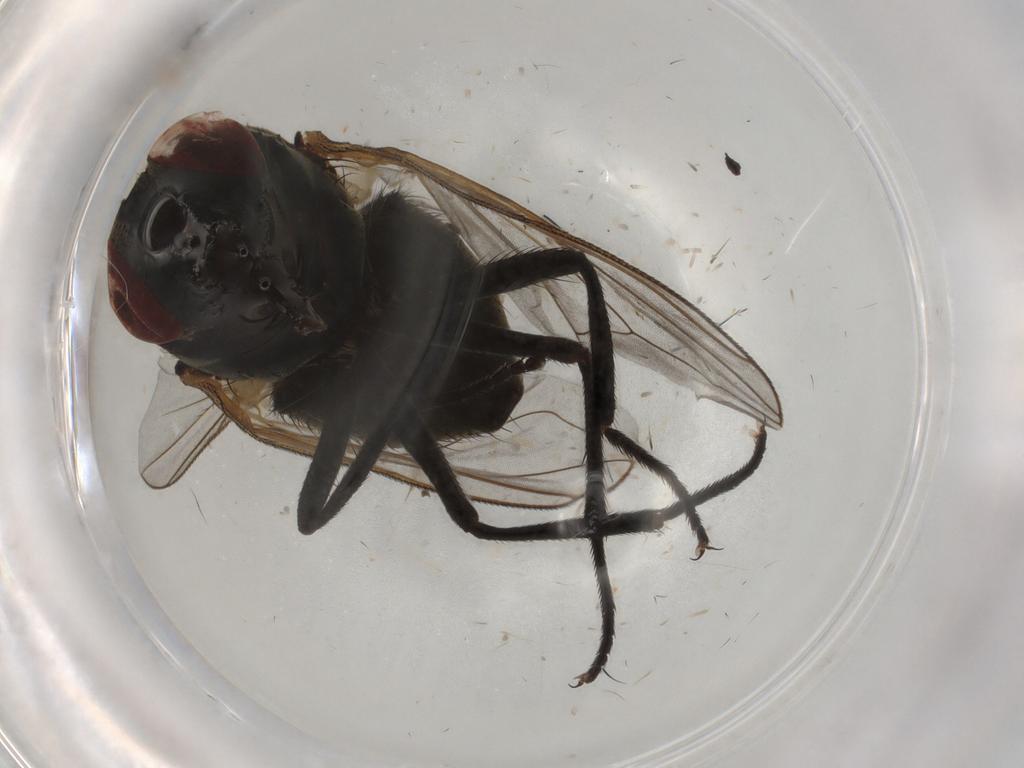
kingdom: Animalia
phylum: Arthropoda
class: Insecta
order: Diptera
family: Muscidae
